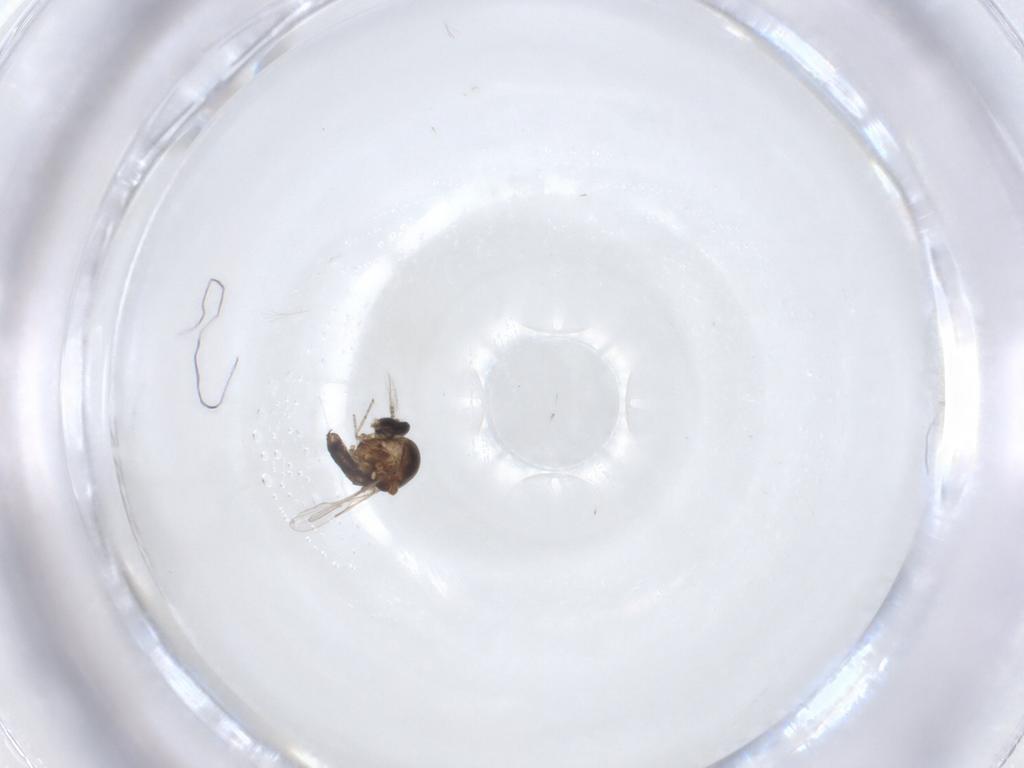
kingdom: Animalia
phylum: Arthropoda
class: Insecta
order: Diptera
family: Ceratopogonidae
